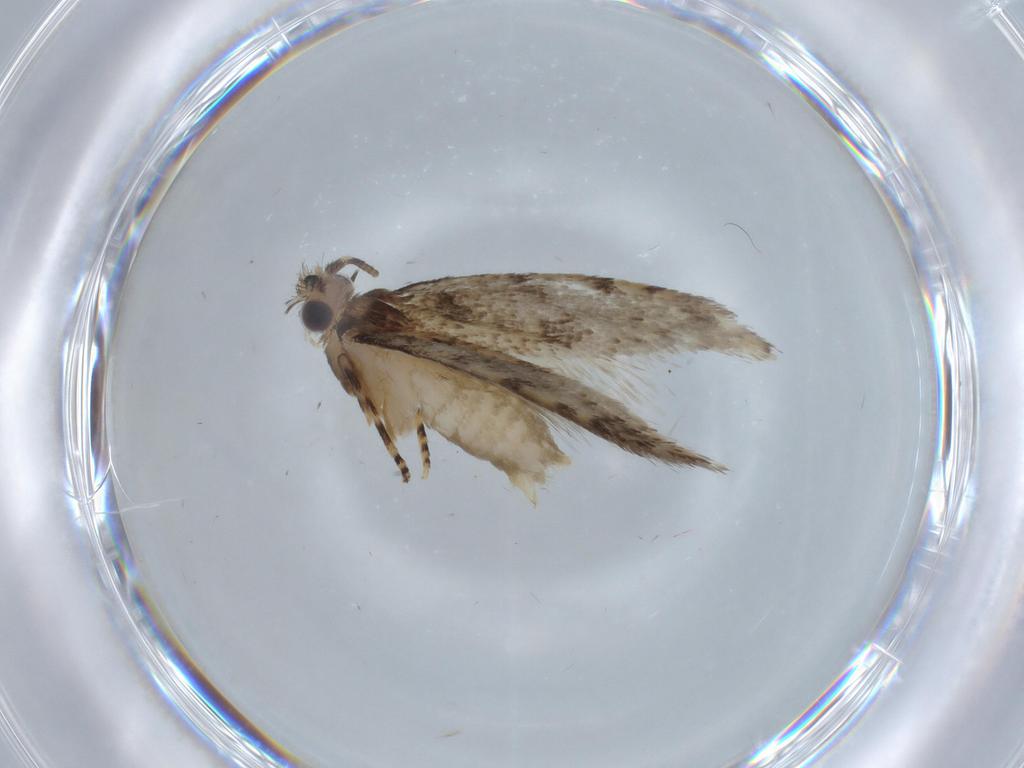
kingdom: Animalia
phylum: Arthropoda
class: Insecta
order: Lepidoptera
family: Tineidae
